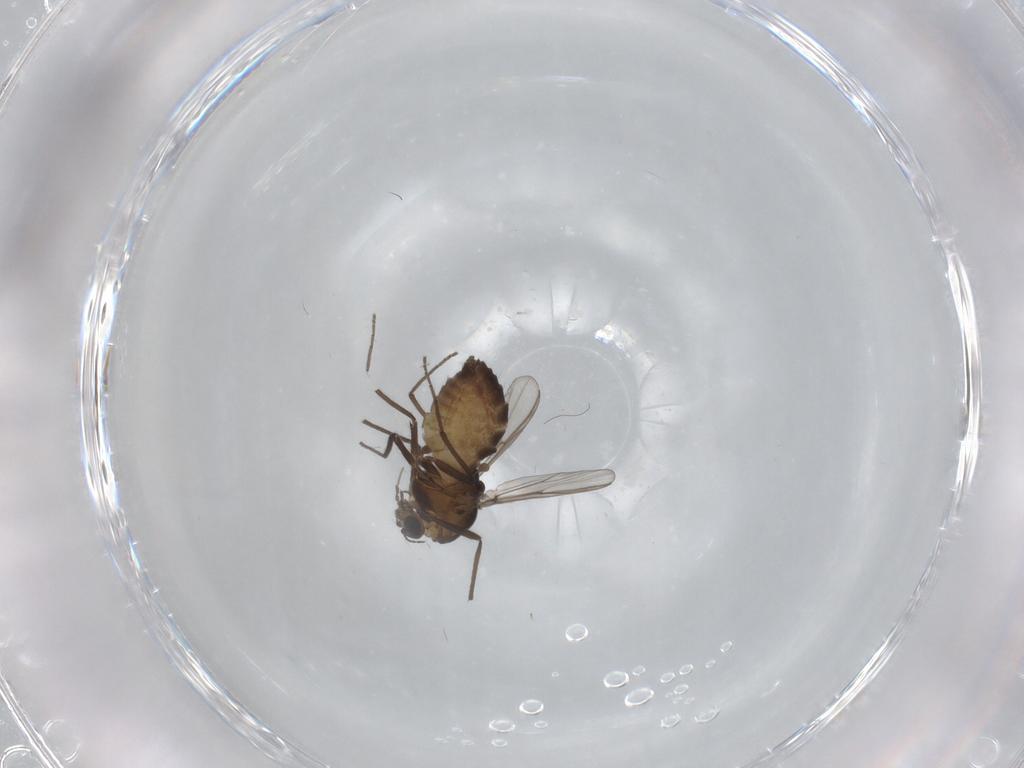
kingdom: Animalia
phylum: Arthropoda
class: Insecta
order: Diptera
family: Chironomidae
